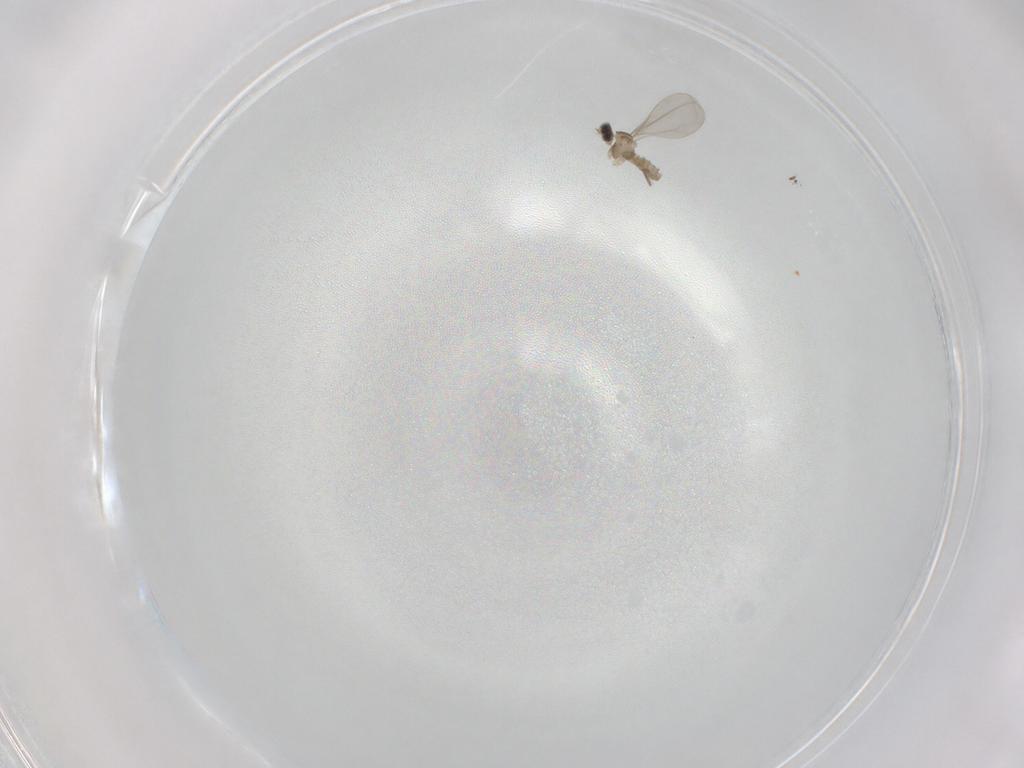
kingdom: Animalia
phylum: Arthropoda
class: Insecta
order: Diptera
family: Cecidomyiidae
